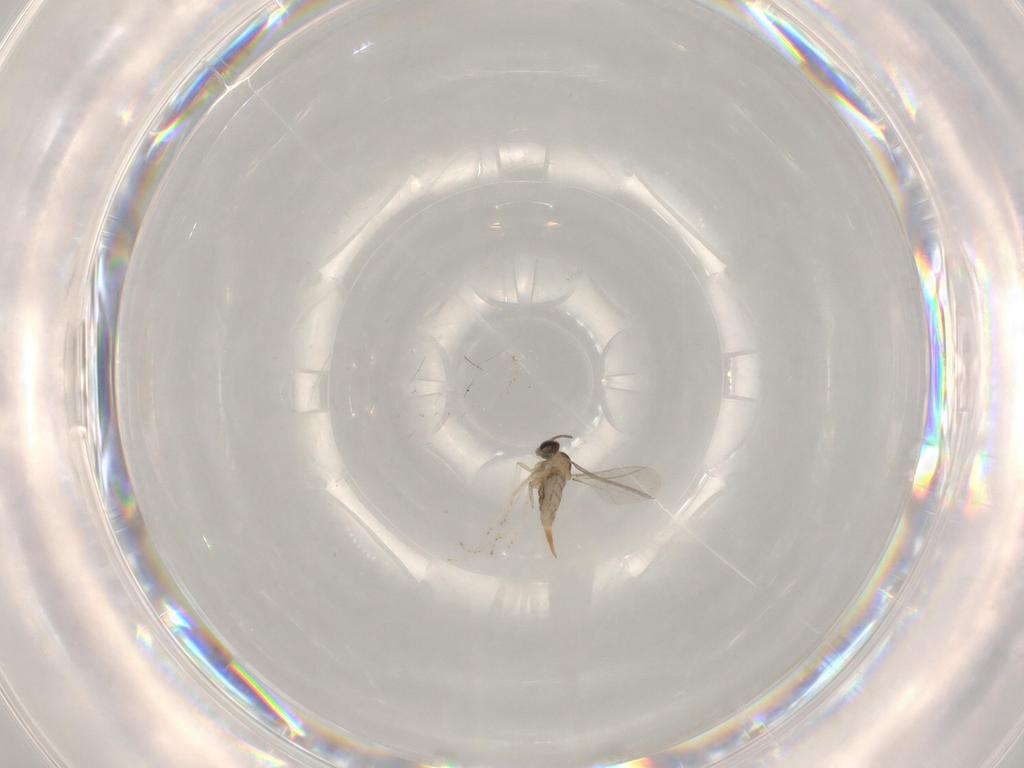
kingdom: Animalia
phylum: Arthropoda
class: Insecta
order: Diptera
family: Cecidomyiidae
